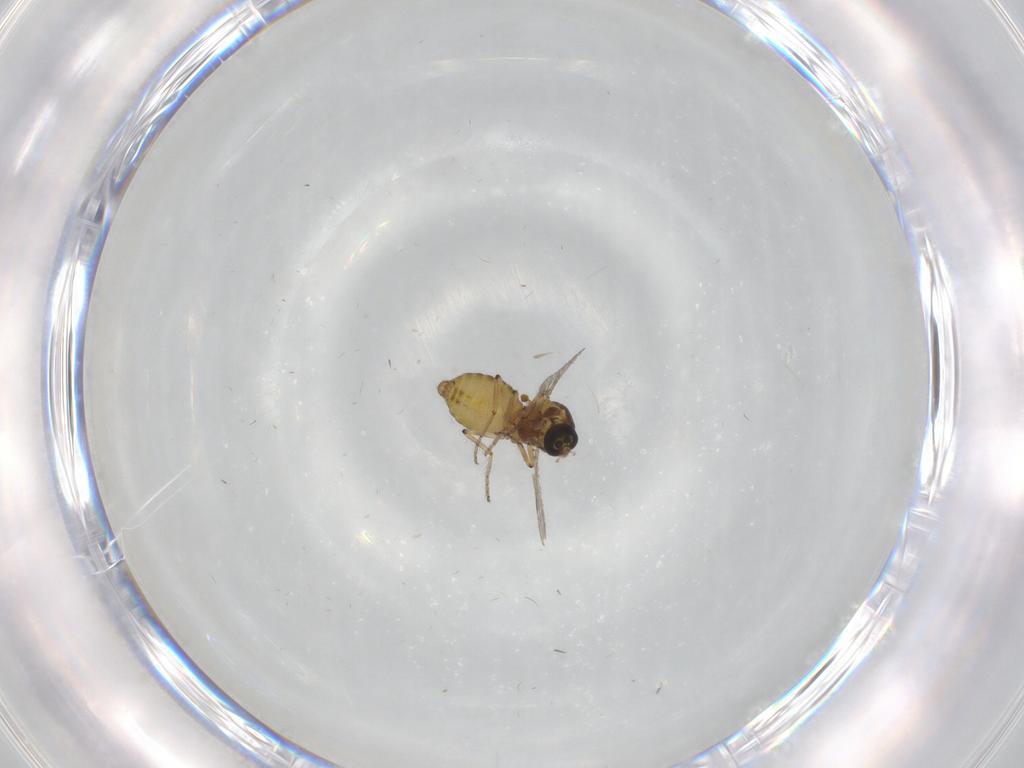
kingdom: Animalia
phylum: Arthropoda
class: Insecta
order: Diptera
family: Ceratopogonidae
